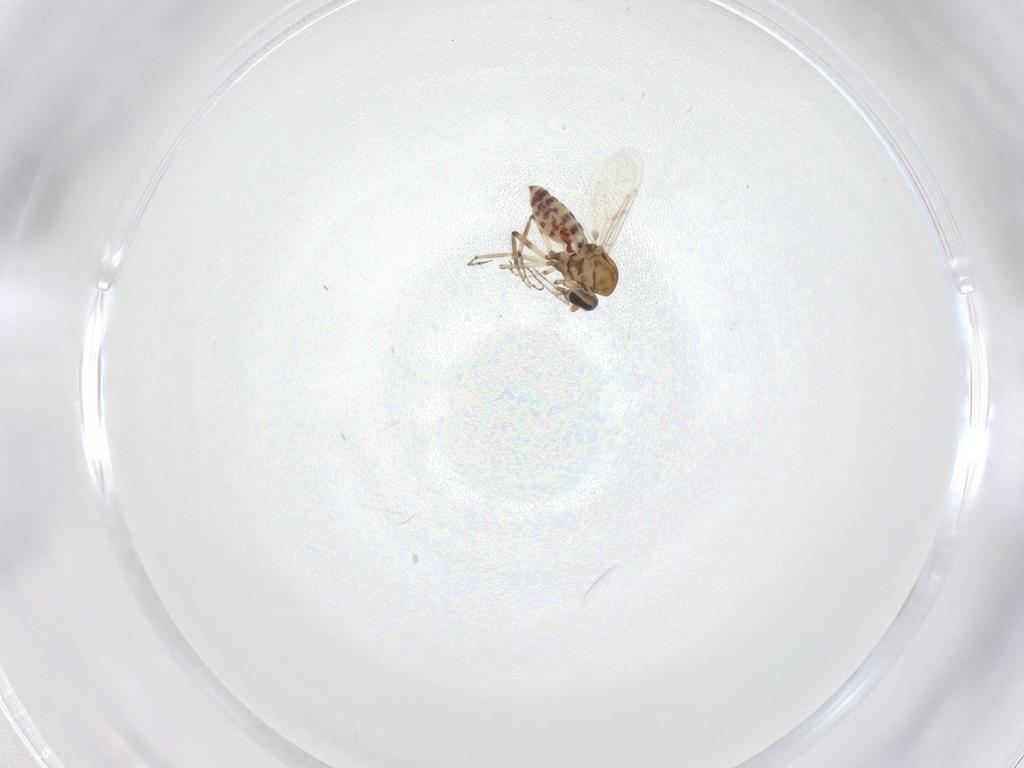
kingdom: Animalia
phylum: Arthropoda
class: Insecta
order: Diptera
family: Ceratopogonidae
